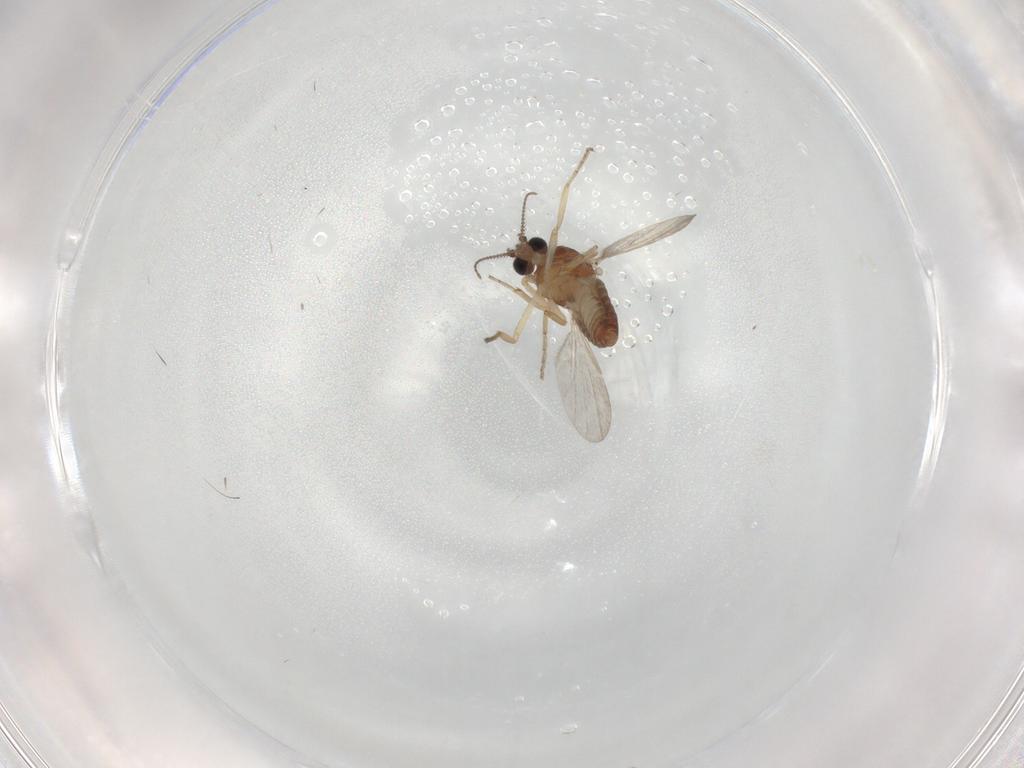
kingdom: Animalia
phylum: Arthropoda
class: Insecta
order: Diptera
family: Ceratopogonidae
